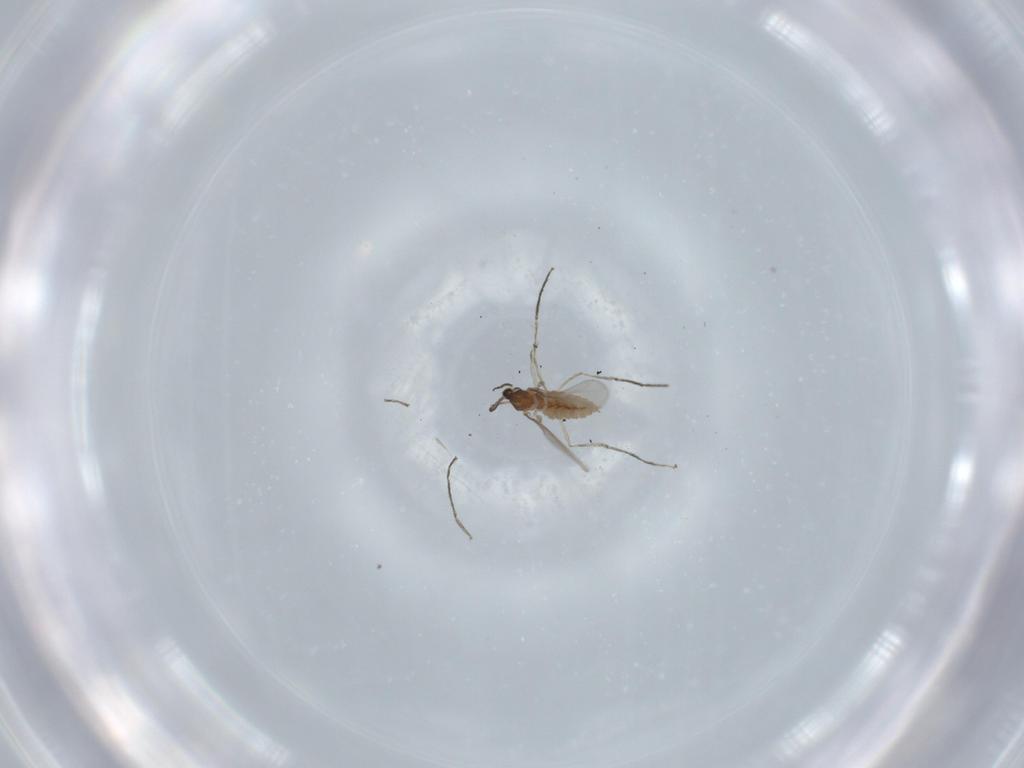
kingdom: Animalia
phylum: Arthropoda
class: Insecta
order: Diptera
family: Cecidomyiidae
